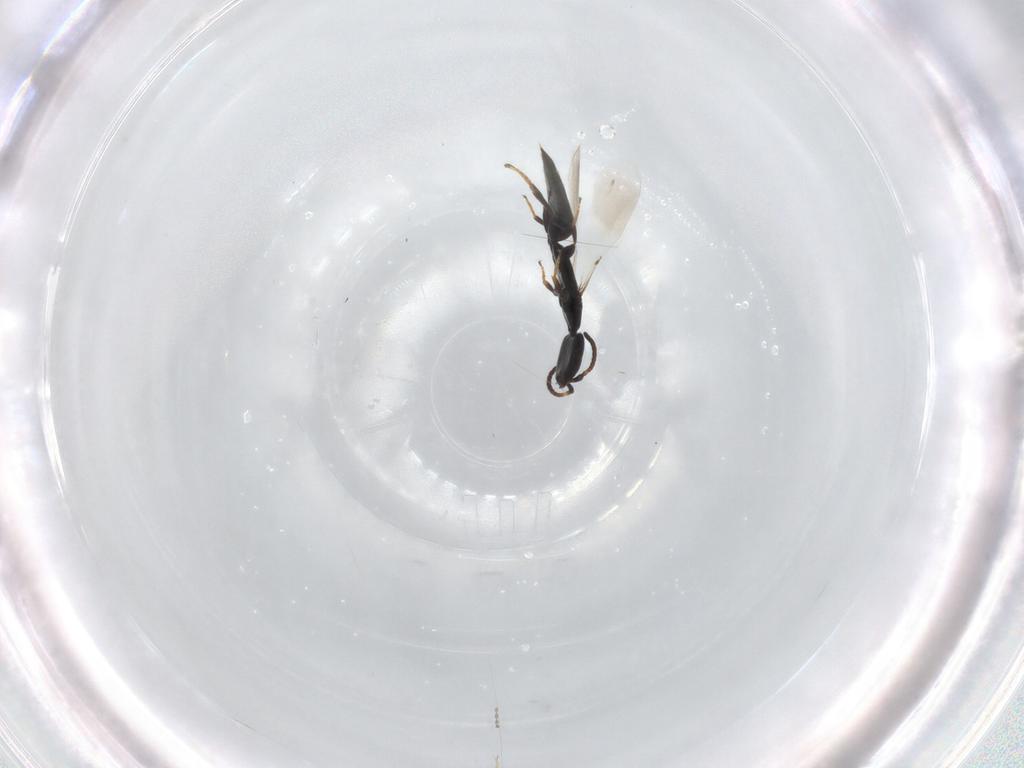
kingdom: Animalia
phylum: Arthropoda
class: Insecta
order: Hymenoptera
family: Bethylidae
